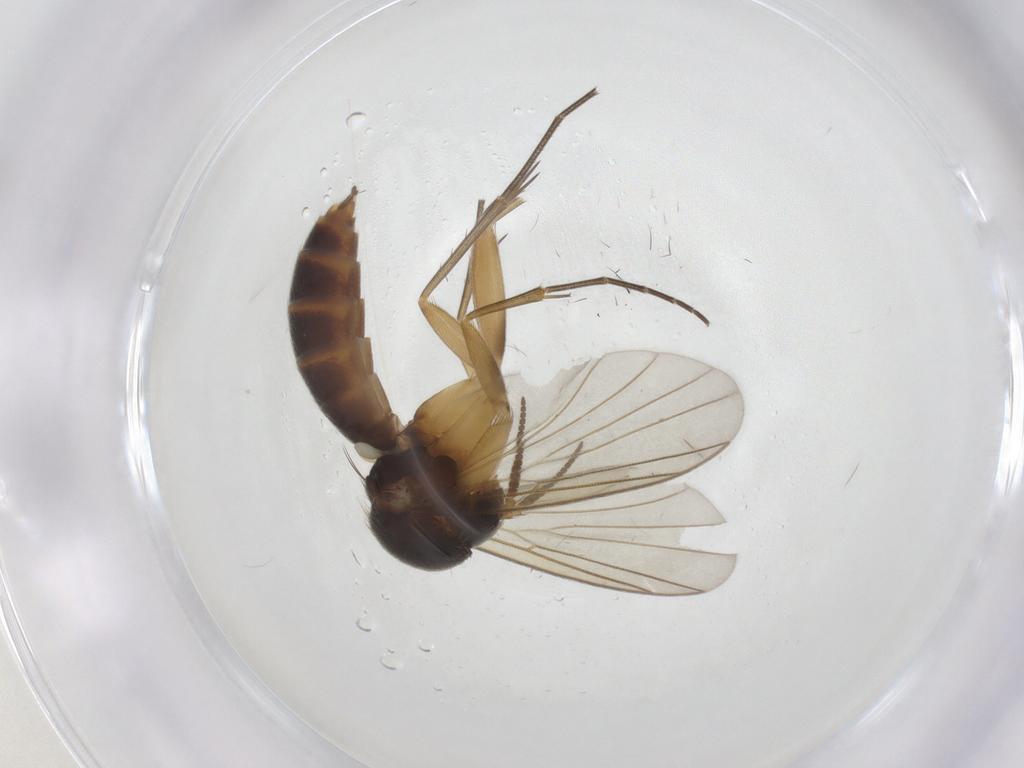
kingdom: Animalia
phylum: Arthropoda
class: Insecta
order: Diptera
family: Mycetophilidae
